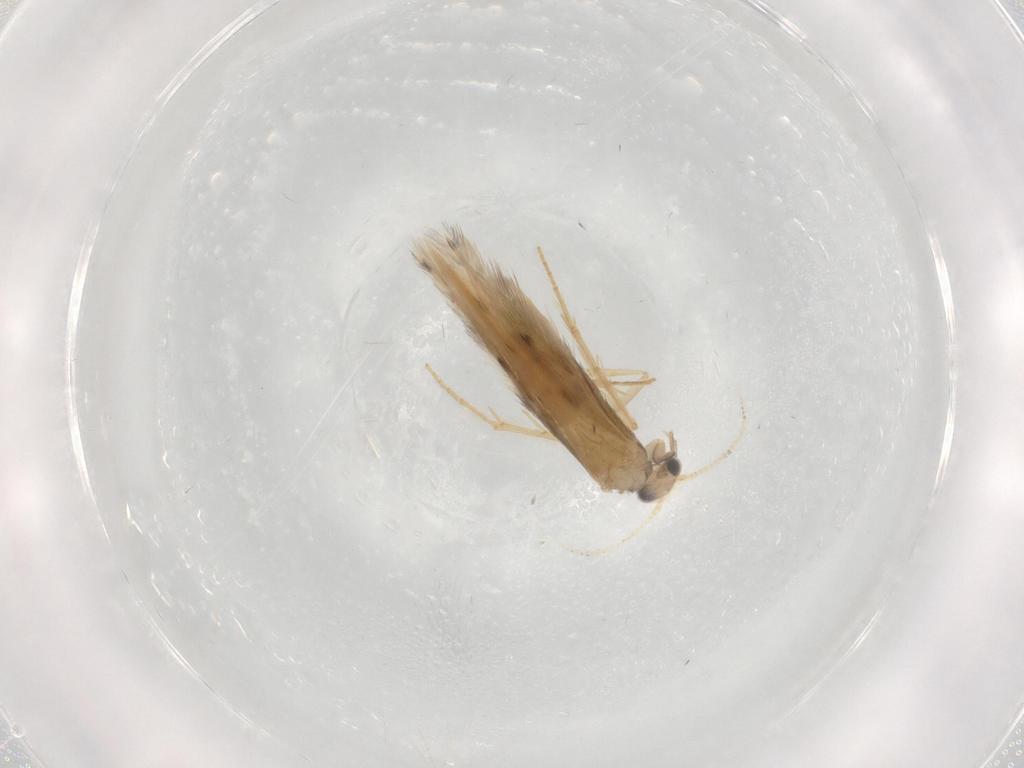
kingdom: Animalia
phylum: Arthropoda
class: Insecta
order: Trichoptera
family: Hydroptilidae
